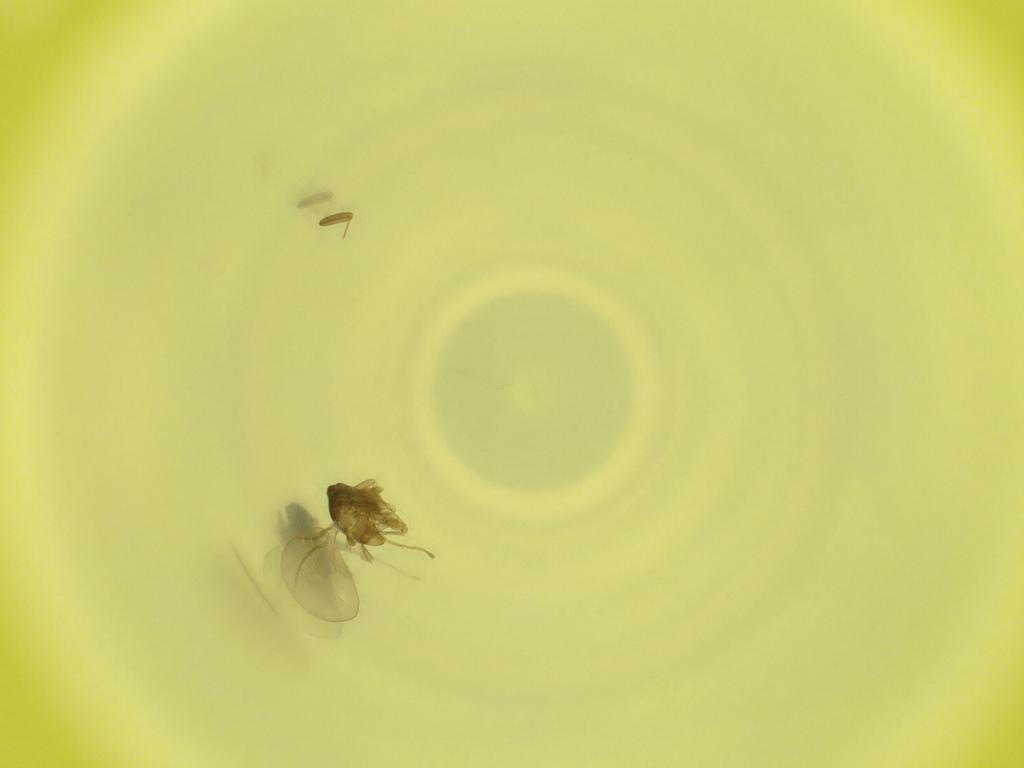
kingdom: Animalia
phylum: Arthropoda
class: Insecta
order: Diptera
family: Cecidomyiidae
